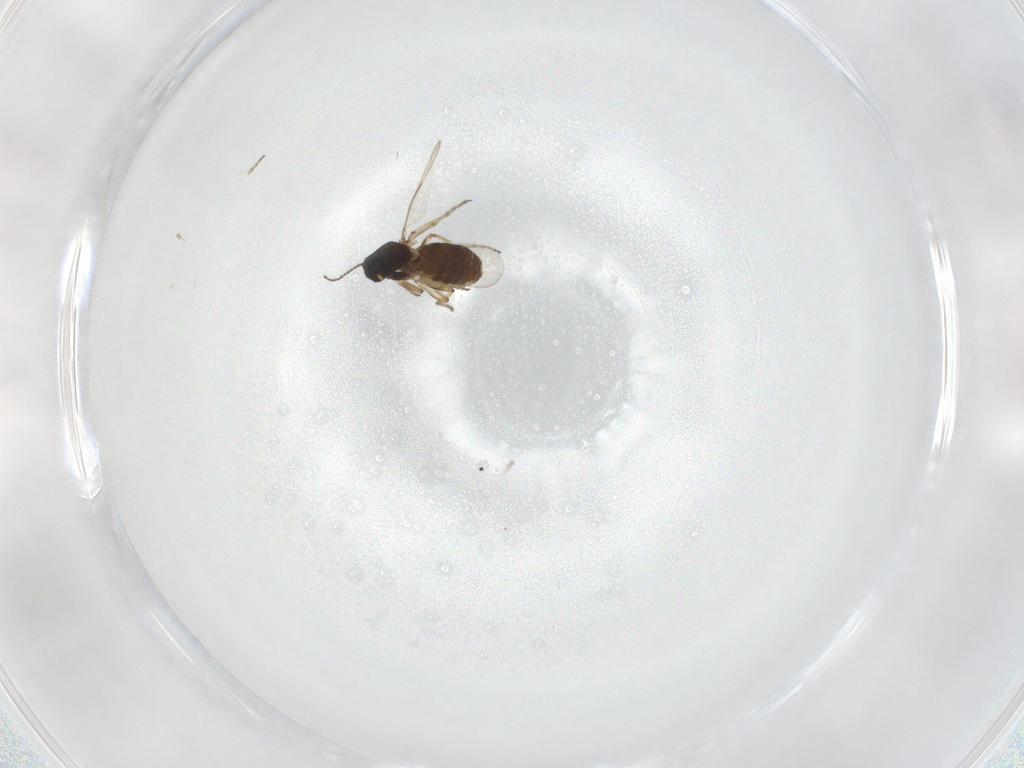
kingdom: Animalia
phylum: Arthropoda
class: Insecta
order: Diptera
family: Ceratopogonidae
